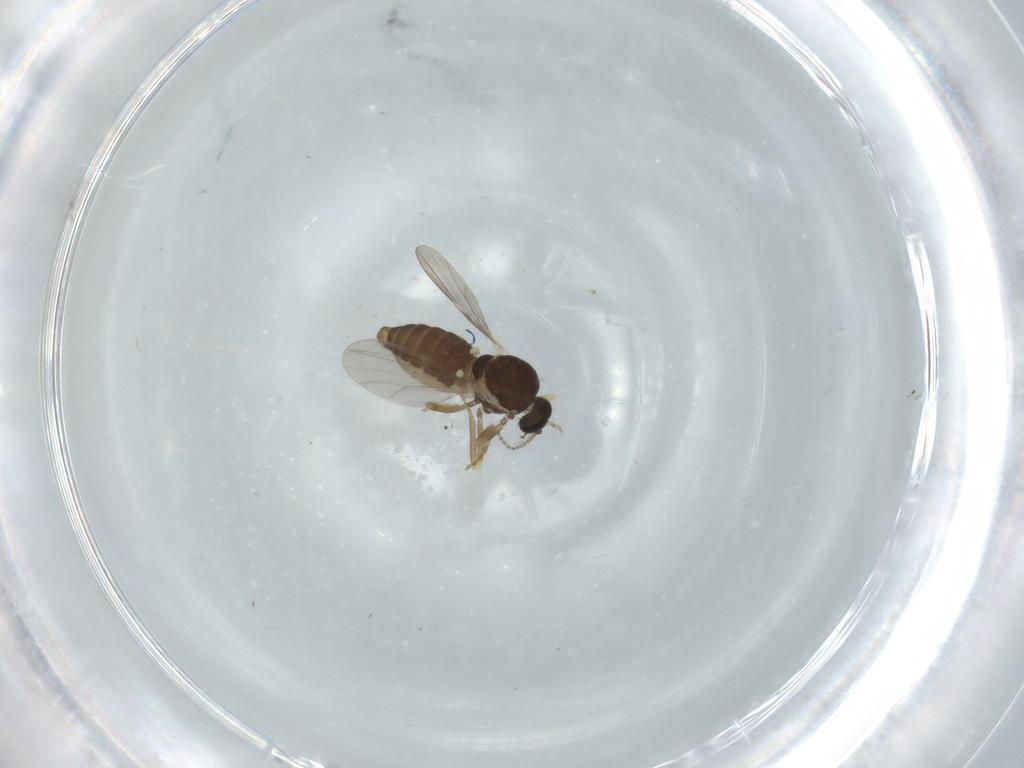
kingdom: Animalia
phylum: Arthropoda
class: Insecta
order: Diptera
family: Ceratopogonidae
